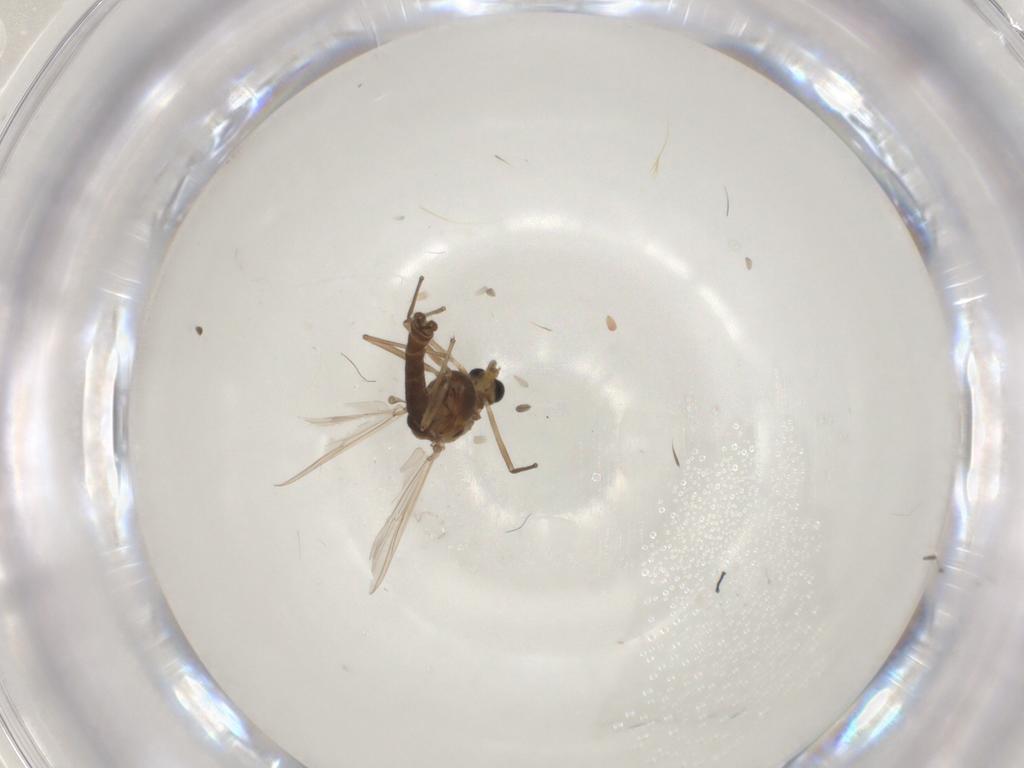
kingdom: Animalia
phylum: Arthropoda
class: Insecta
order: Diptera
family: Chironomidae
